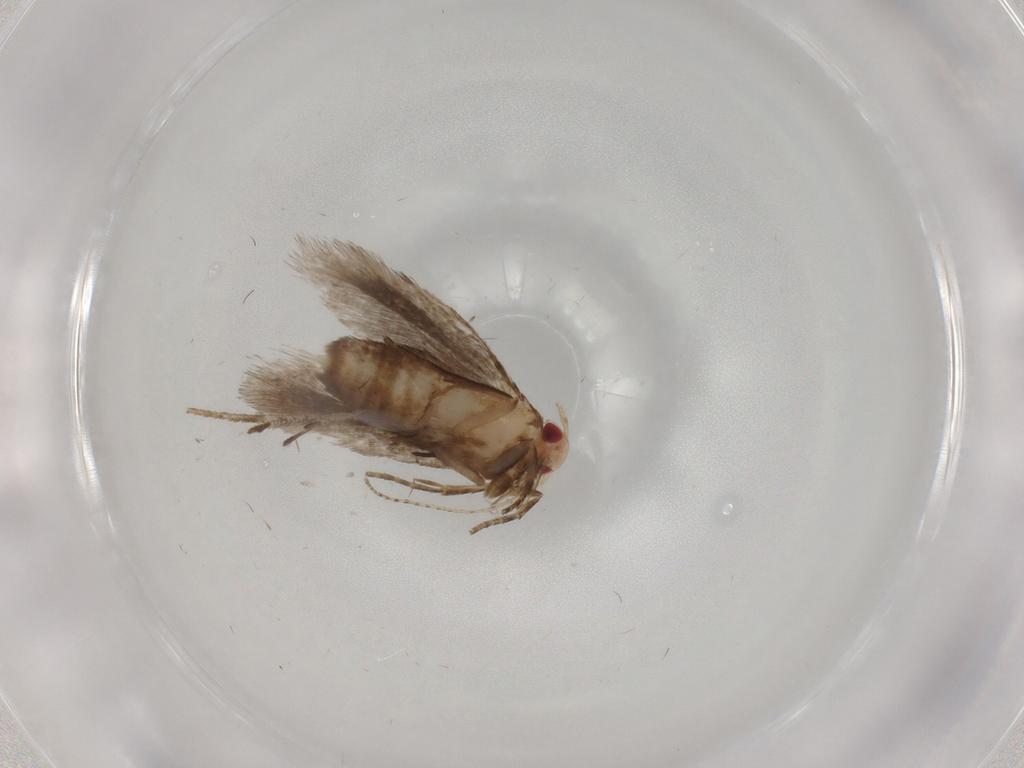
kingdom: Animalia
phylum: Arthropoda
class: Insecta
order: Lepidoptera
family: Gelechiidae
